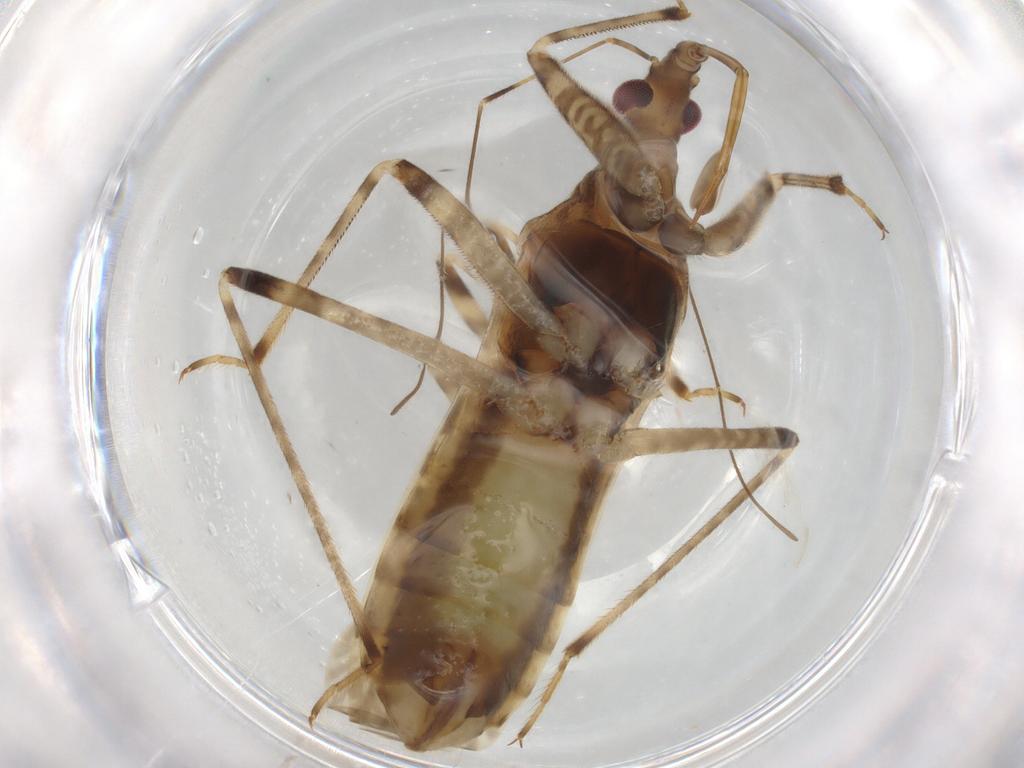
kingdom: Animalia
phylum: Arthropoda
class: Insecta
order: Hemiptera
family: Nabidae
